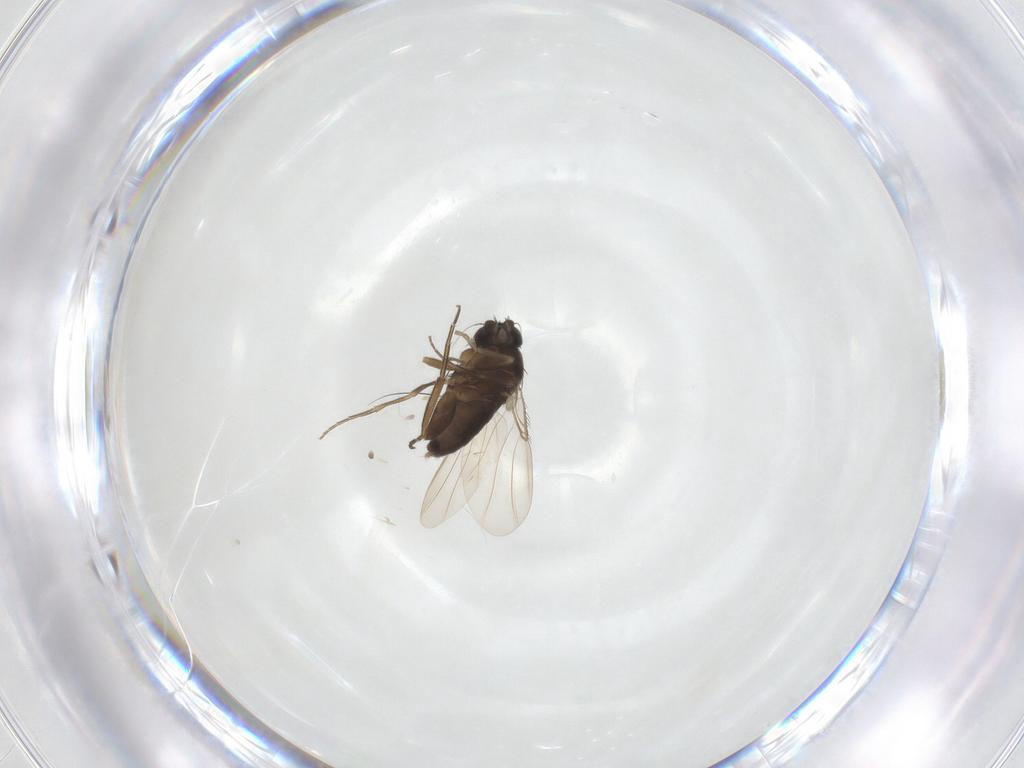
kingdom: Animalia
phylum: Arthropoda
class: Insecta
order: Diptera
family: Phoridae
